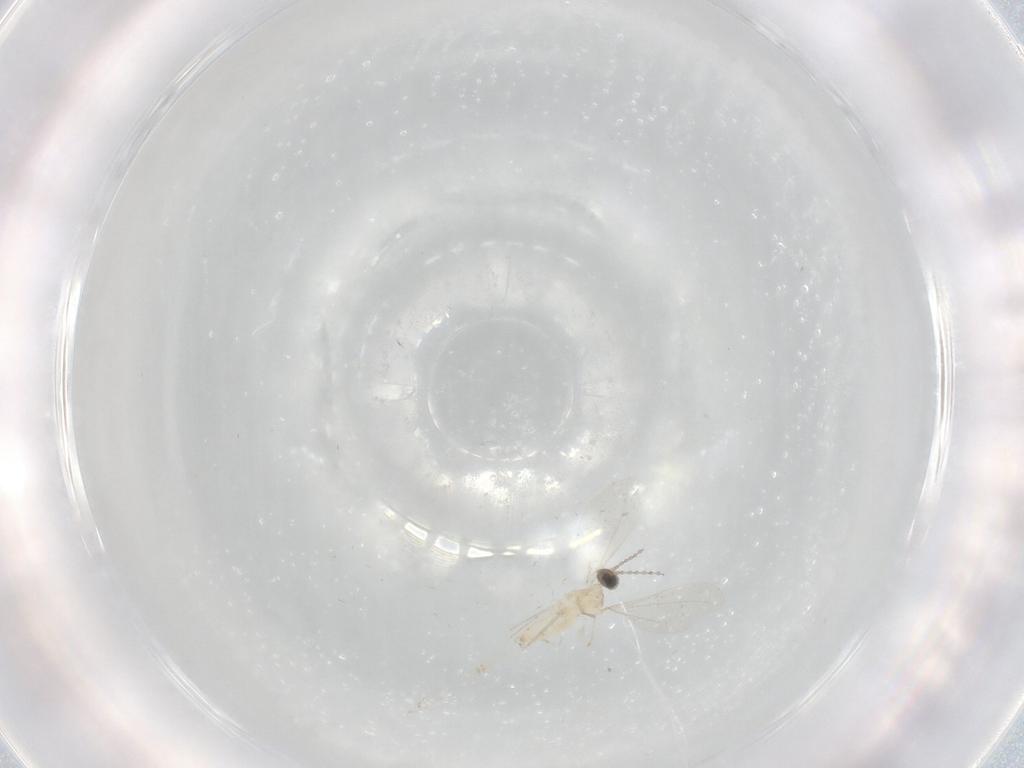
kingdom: Animalia
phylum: Arthropoda
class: Insecta
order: Diptera
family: Cecidomyiidae
